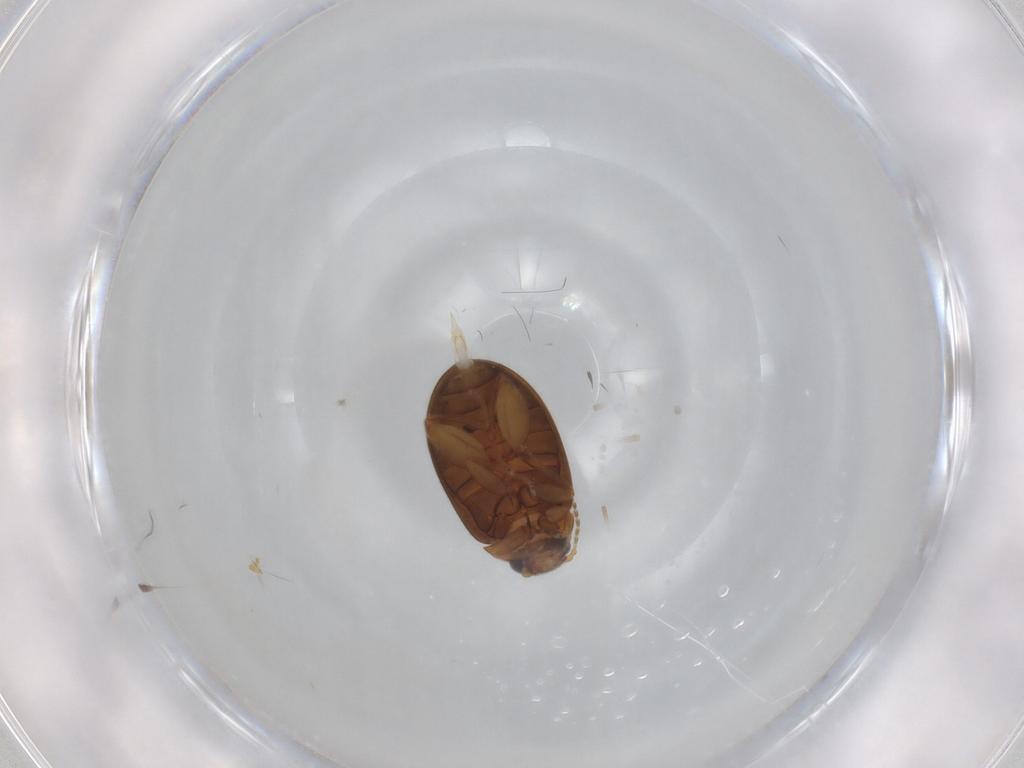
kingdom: Animalia
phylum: Arthropoda
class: Insecta
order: Coleoptera
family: Scirtidae
